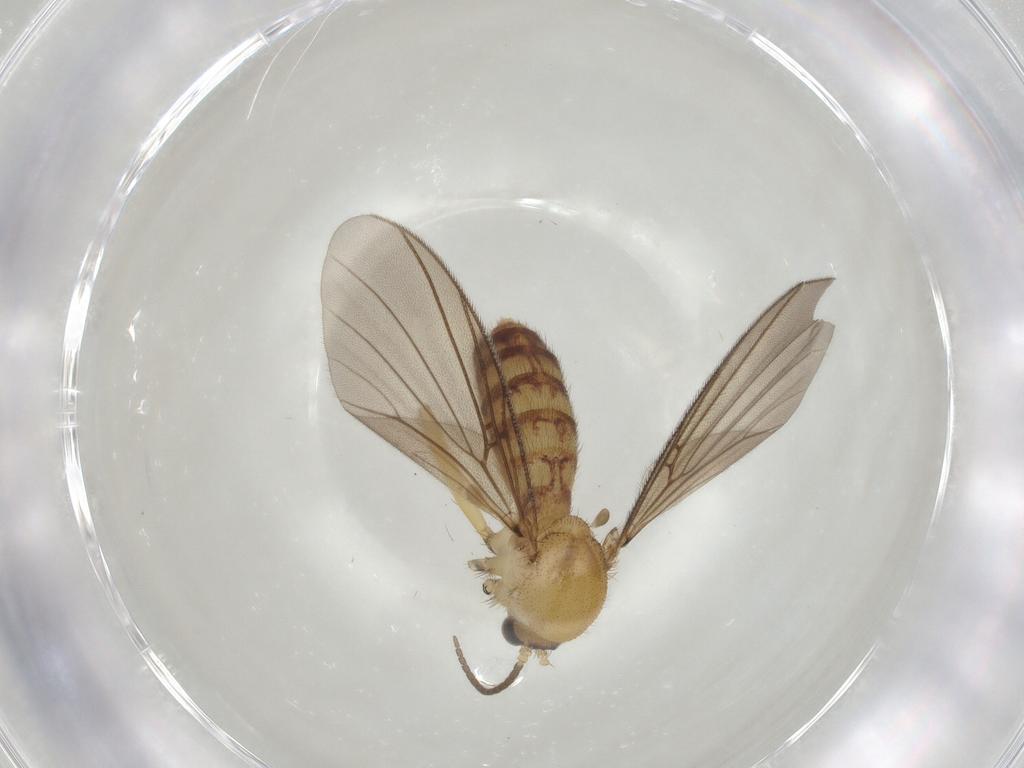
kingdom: Animalia
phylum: Arthropoda
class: Insecta
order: Diptera
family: Mycetophilidae
